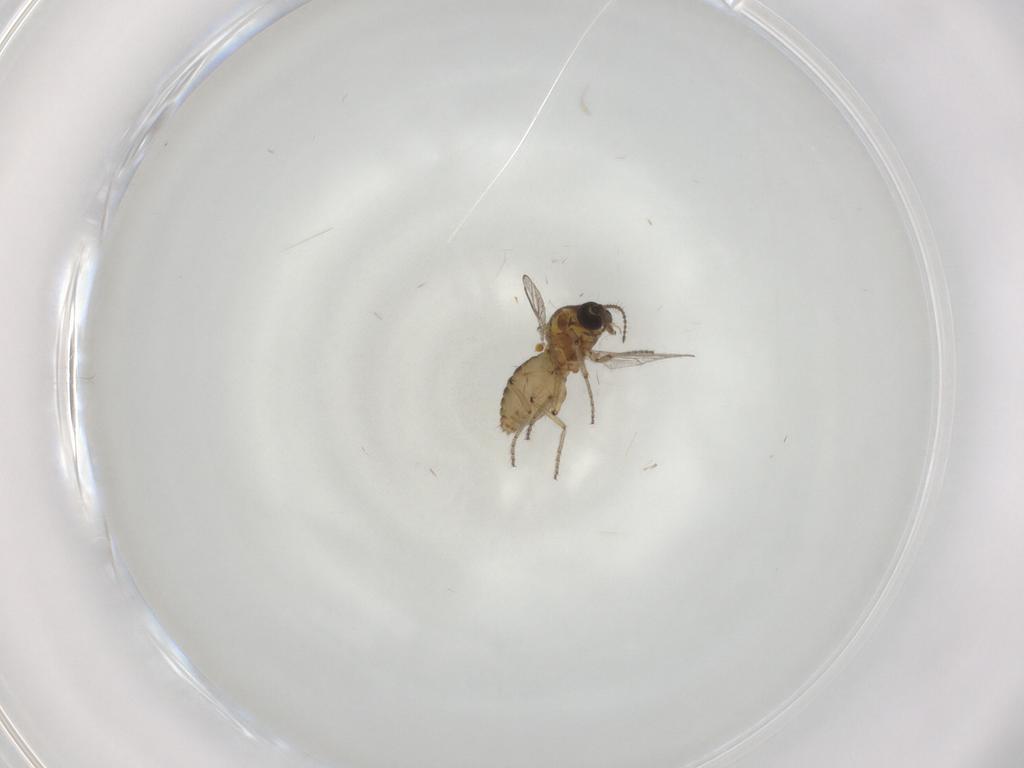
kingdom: Animalia
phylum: Arthropoda
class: Insecta
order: Diptera
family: Ceratopogonidae
